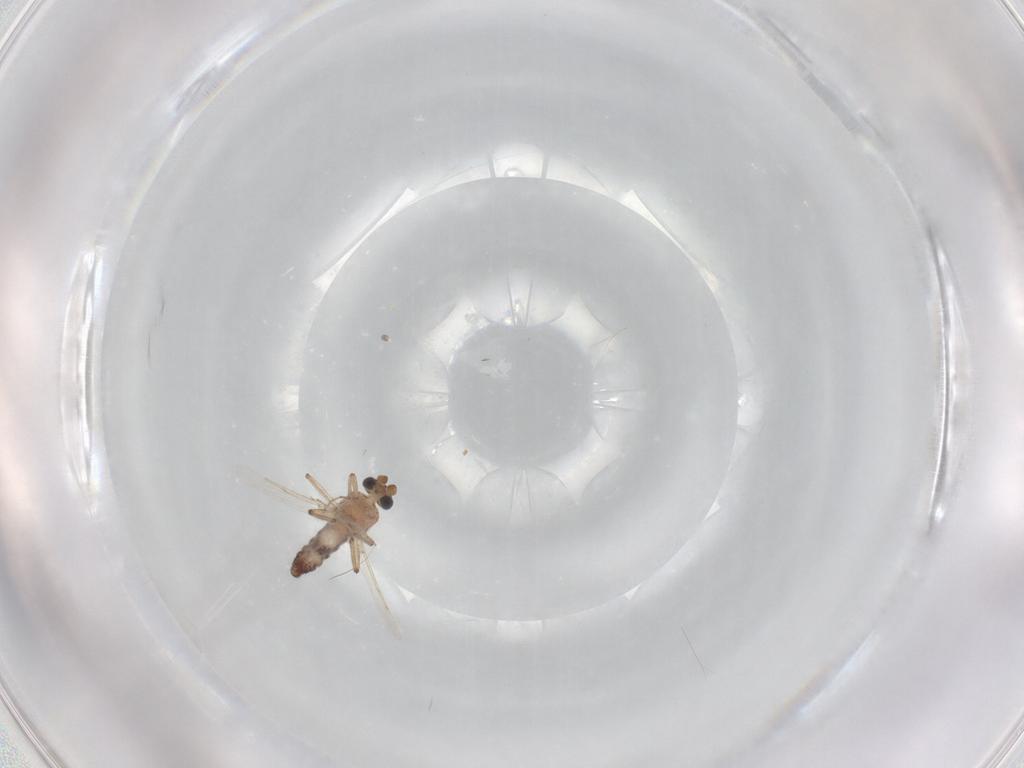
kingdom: Animalia
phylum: Arthropoda
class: Insecta
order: Diptera
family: Ceratopogonidae
